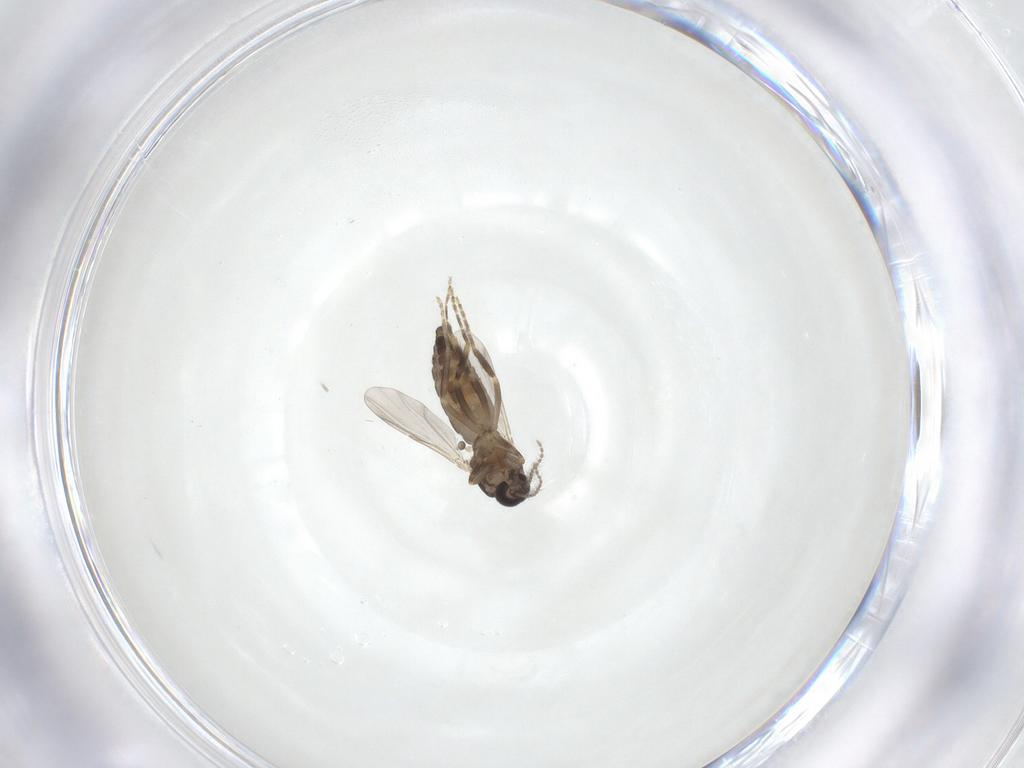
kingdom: Animalia
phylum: Arthropoda
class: Insecta
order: Diptera
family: Ceratopogonidae
